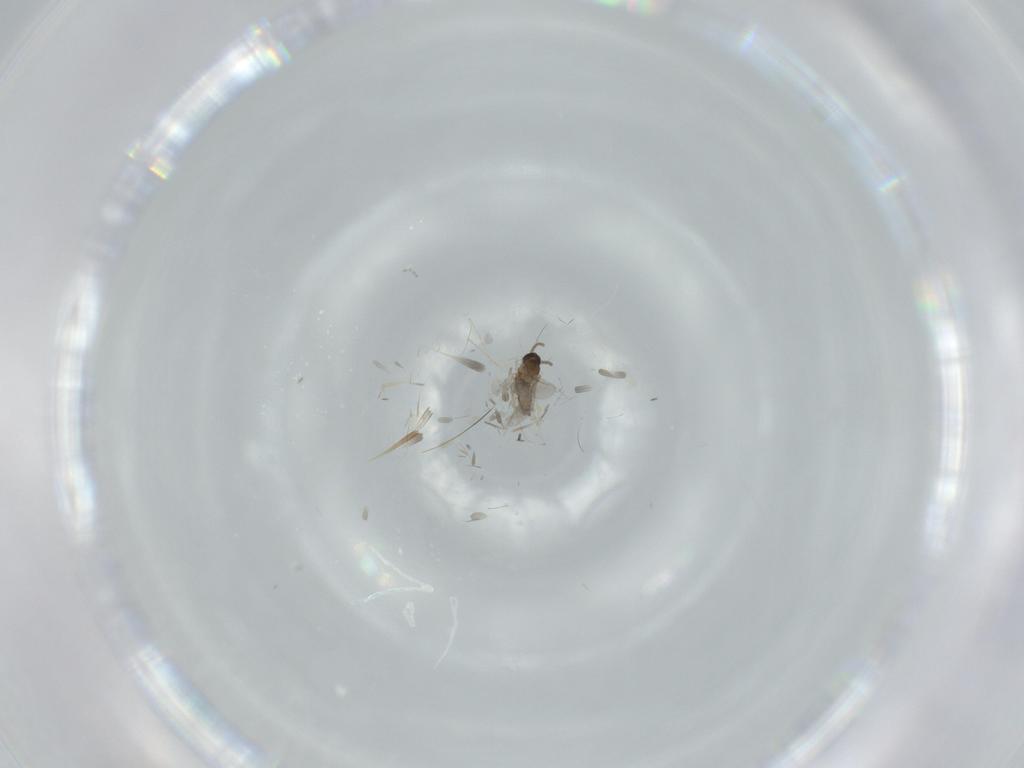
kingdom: Animalia
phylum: Arthropoda
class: Insecta
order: Diptera
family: Cecidomyiidae
